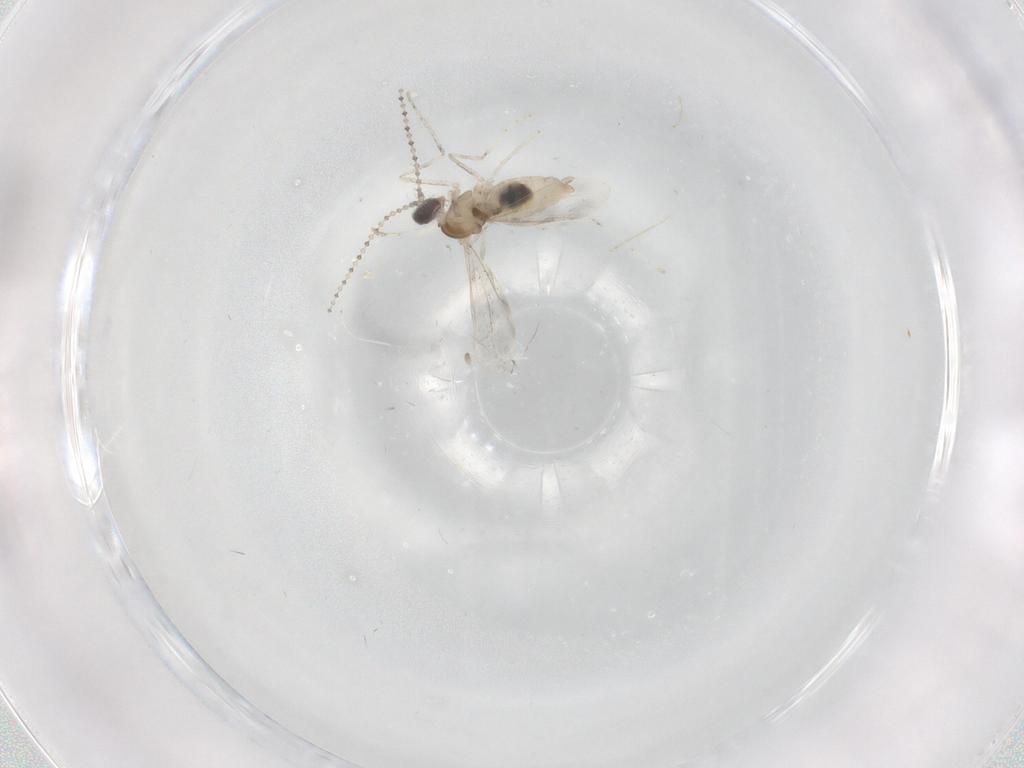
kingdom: Animalia
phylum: Arthropoda
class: Insecta
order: Diptera
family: Cecidomyiidae
